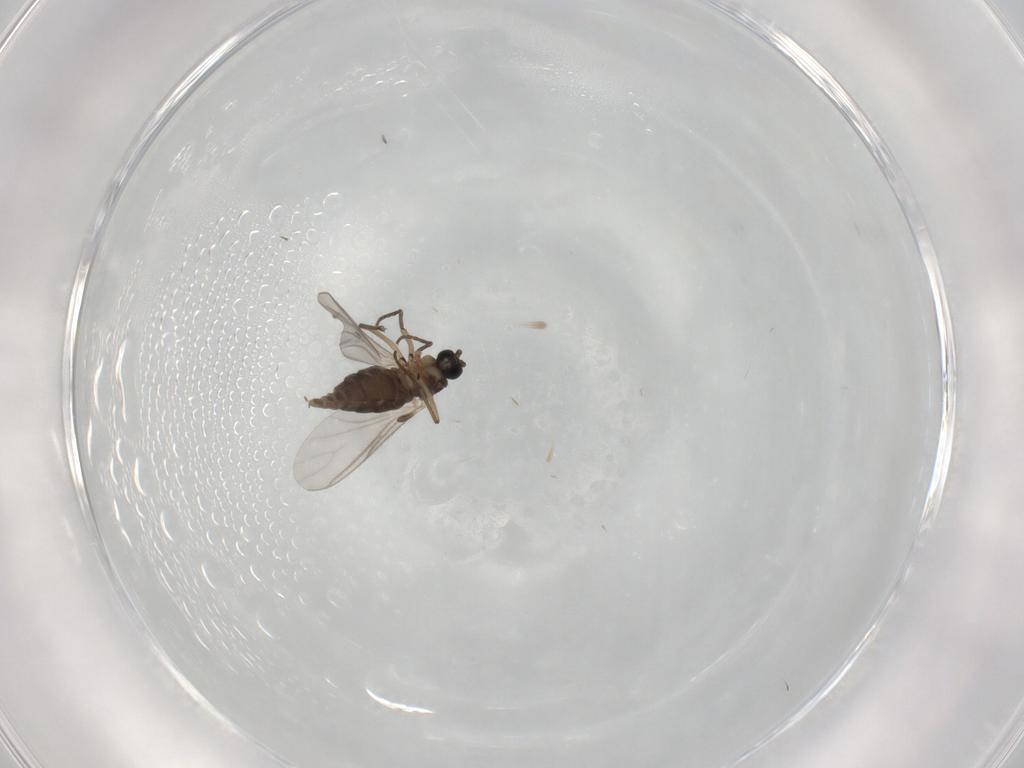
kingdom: Animalia
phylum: Arthropoda
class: Insecta
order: Diptera
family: Sciaridae
